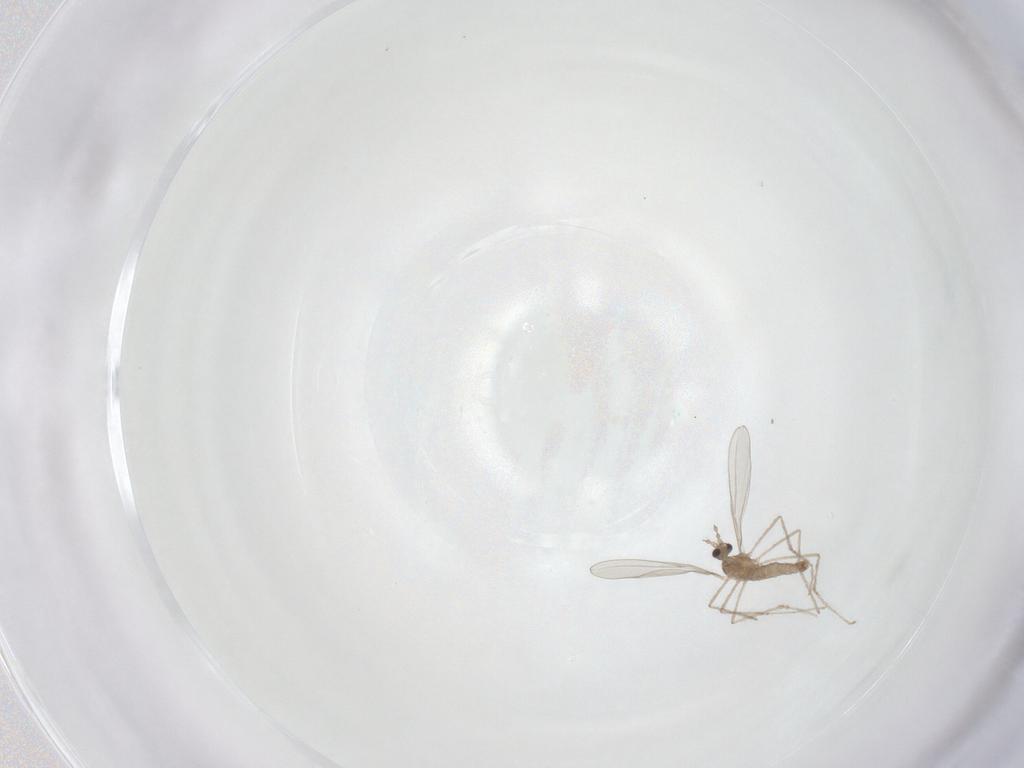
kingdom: Animalia
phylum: Arthropoda
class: Insecta
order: Diptera
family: Cecidomyiidae
